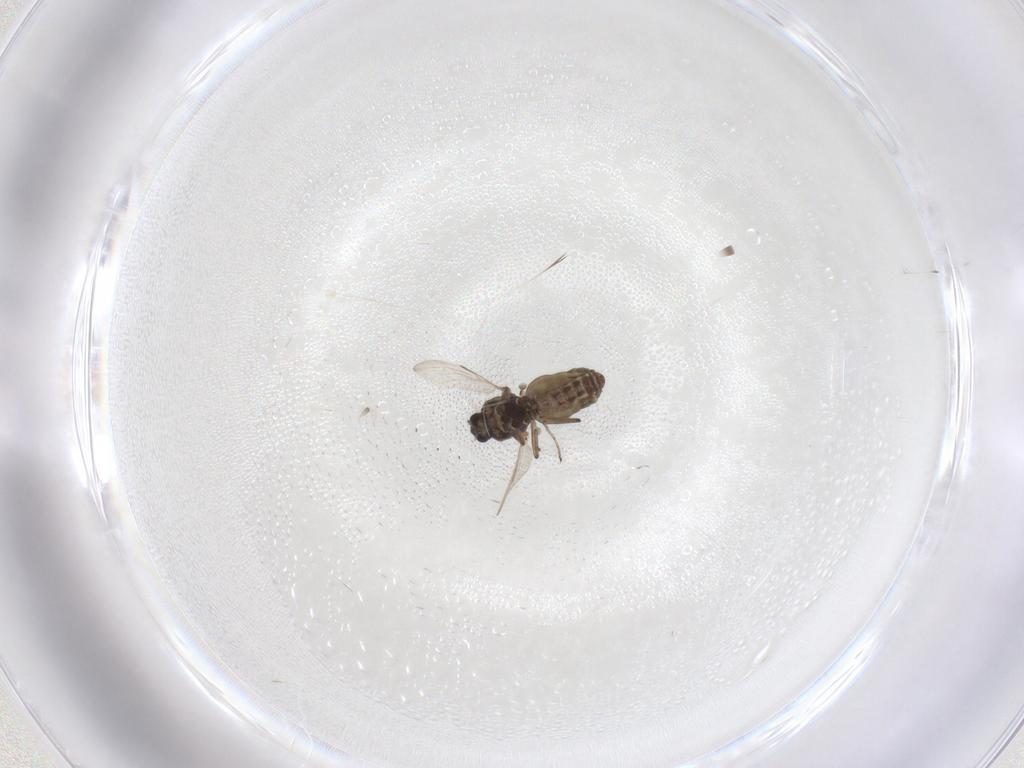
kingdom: Animalia
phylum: Arthropoda
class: Insecta
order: Diptera
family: Ceratopogonidae
